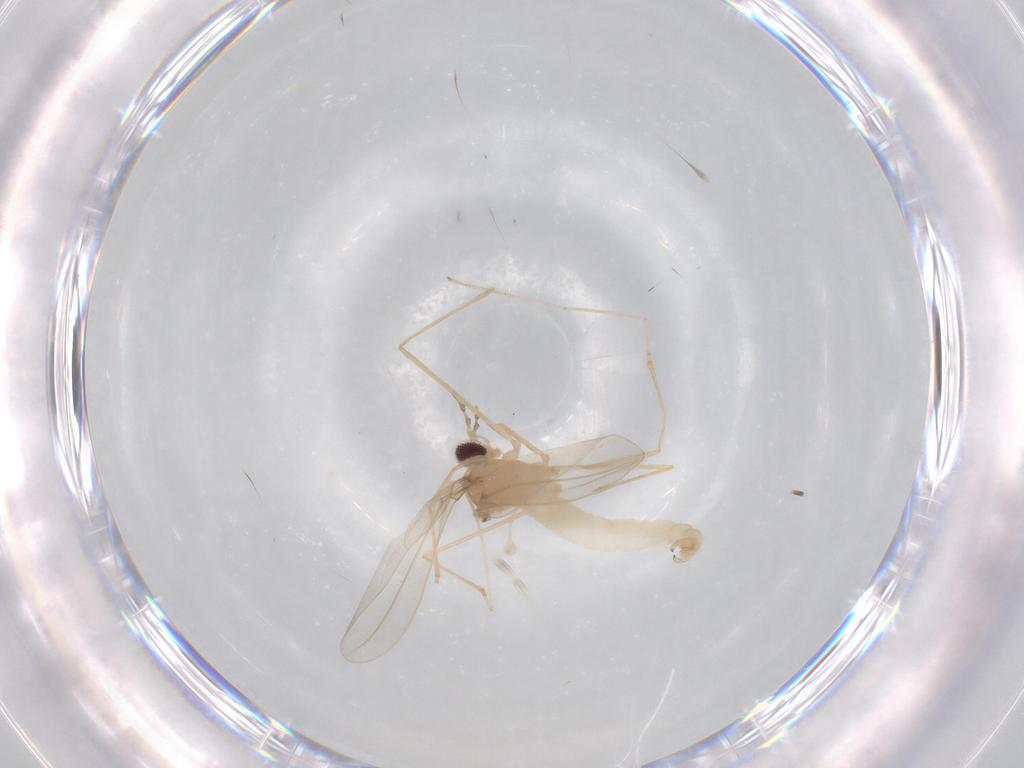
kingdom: Animalia
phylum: Arthropoda
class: Insecta
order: Diptera
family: Cecidomyiidae
